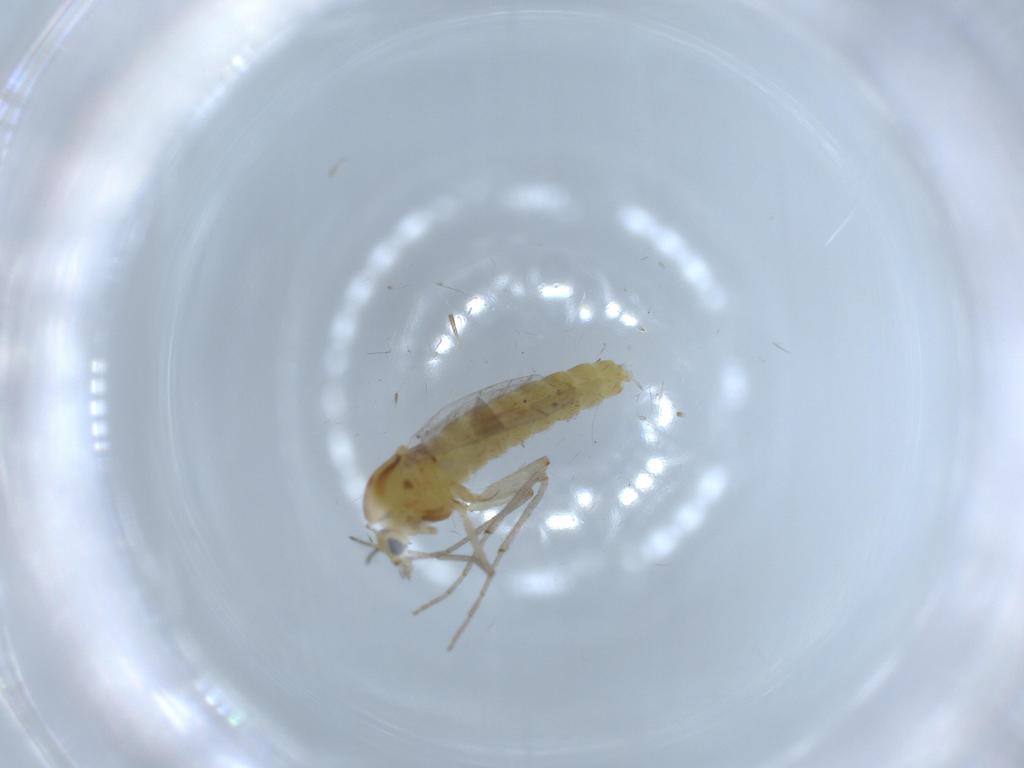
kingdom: Animalia
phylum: Arthropoda
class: Insecta
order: Diptera
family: Chironomidae
